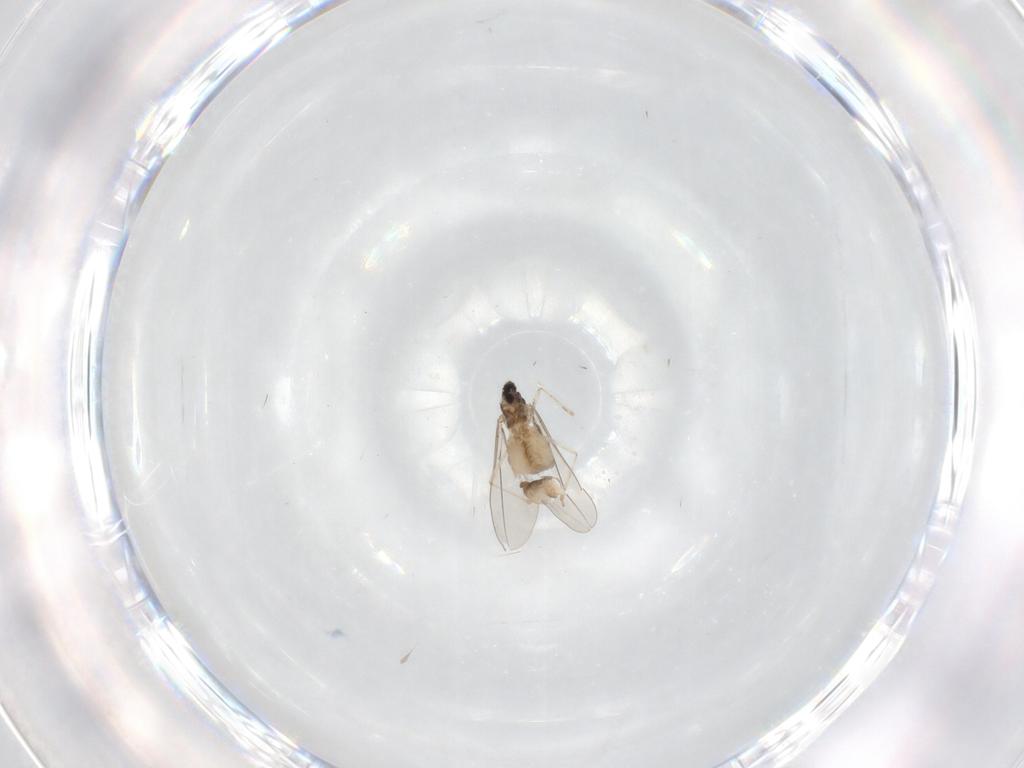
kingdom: Animalia
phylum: Arthropoda
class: Insecta
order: Diptera
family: Cecidomyiidae
